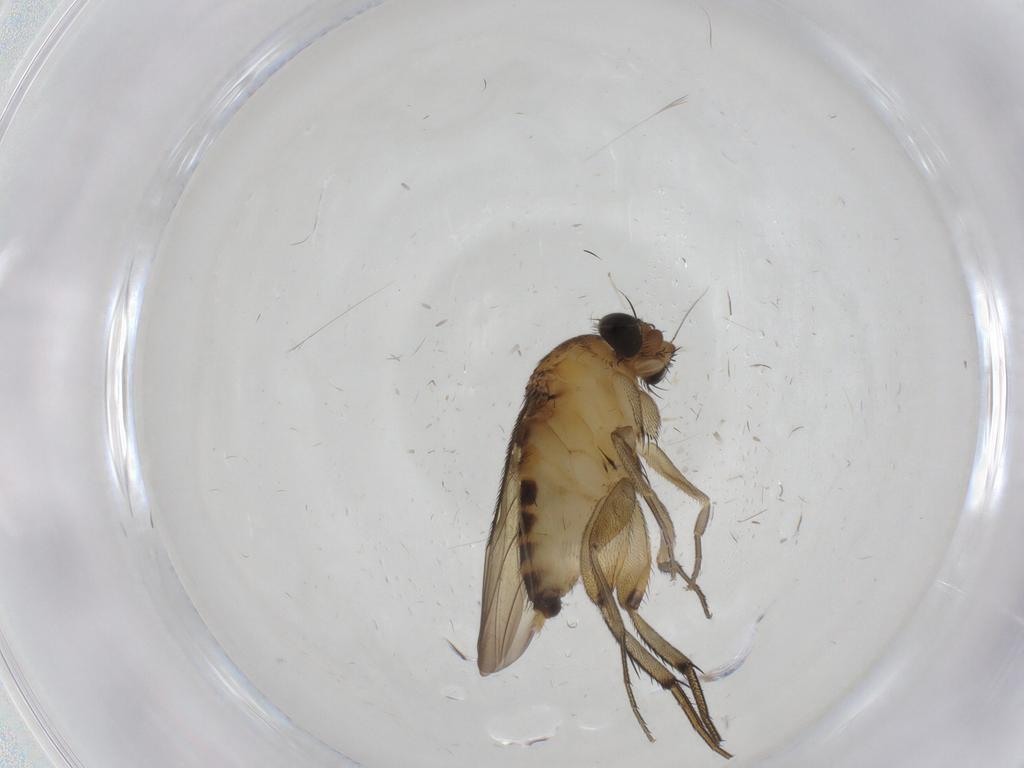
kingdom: Animalia
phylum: Arthropoda
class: Insecta
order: Diptera
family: Phoridae
